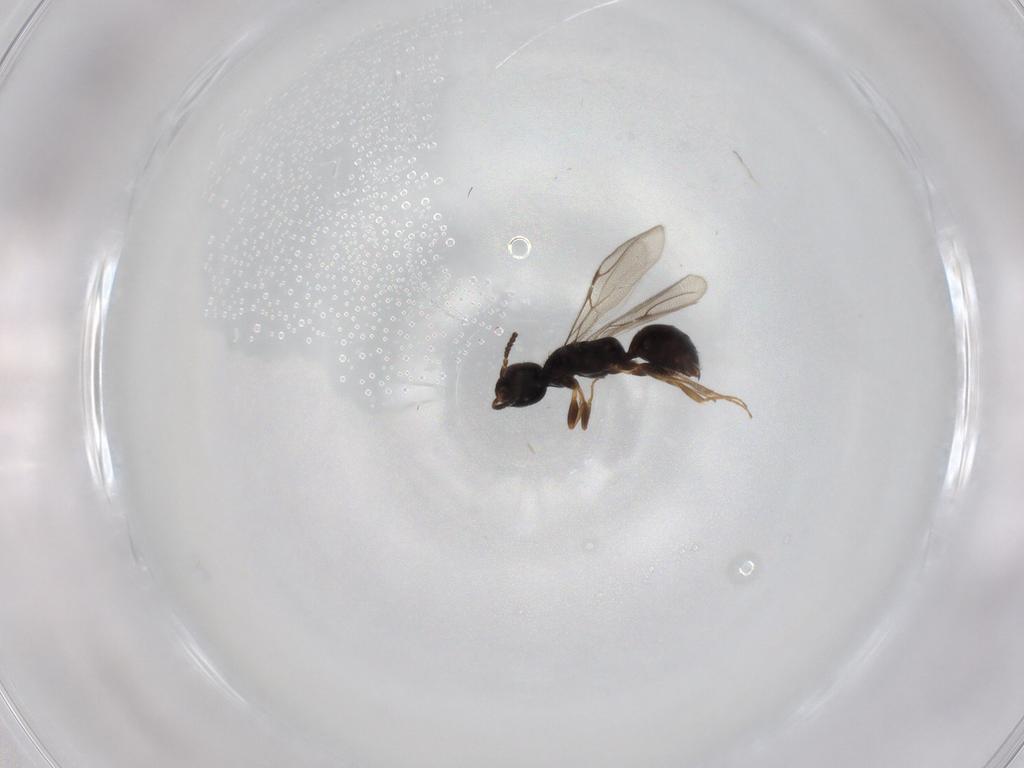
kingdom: Animalia
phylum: Arthropoda
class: Insecta
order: Hymenoptera
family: Bethylidae
